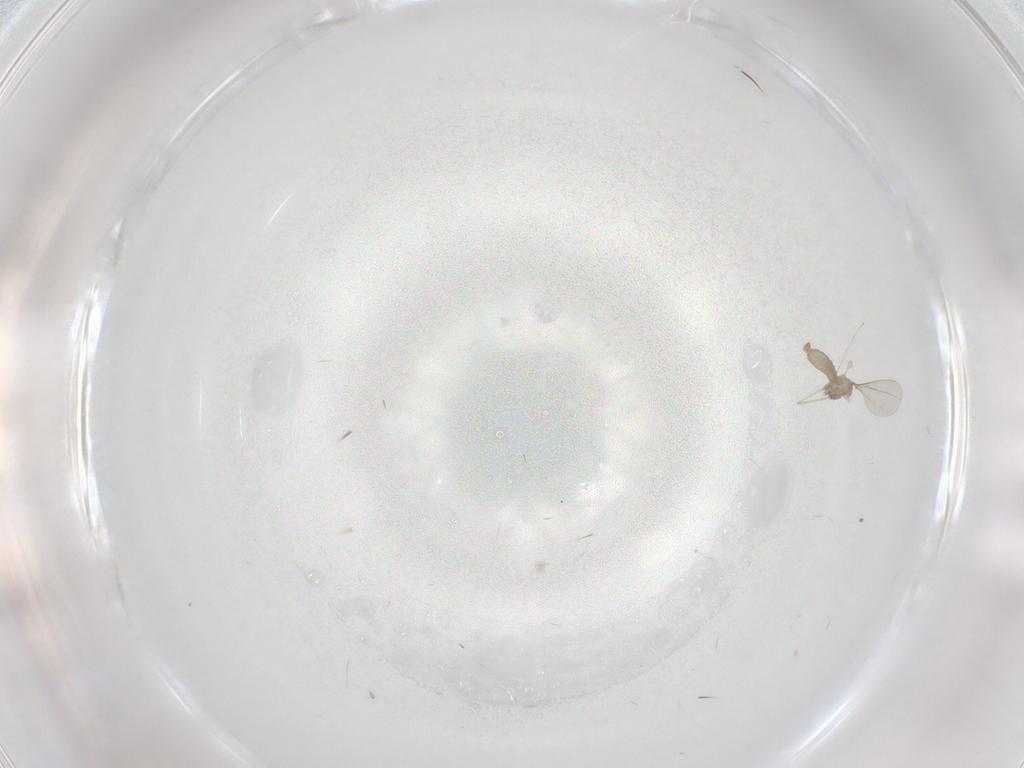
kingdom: Animalia
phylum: Arthropoda
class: Insecta
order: Diptera
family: Cecidomyiidae
